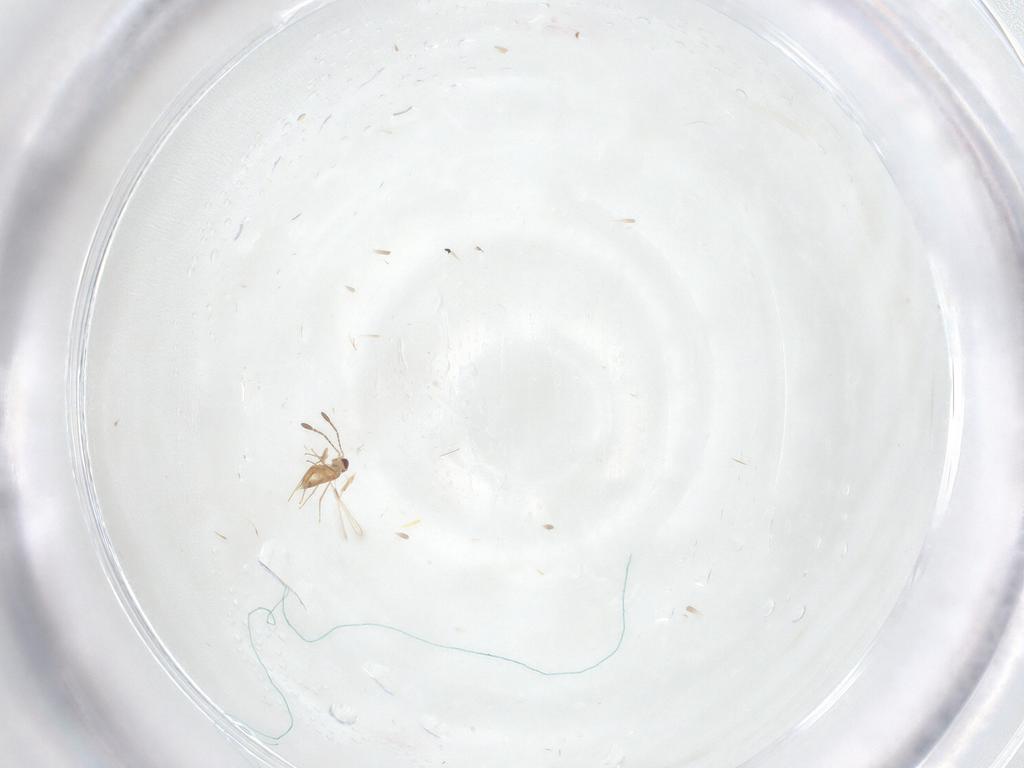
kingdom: Animalia
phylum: Arthropoda
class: Insecta
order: Hymenoptera
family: Mymaridae
